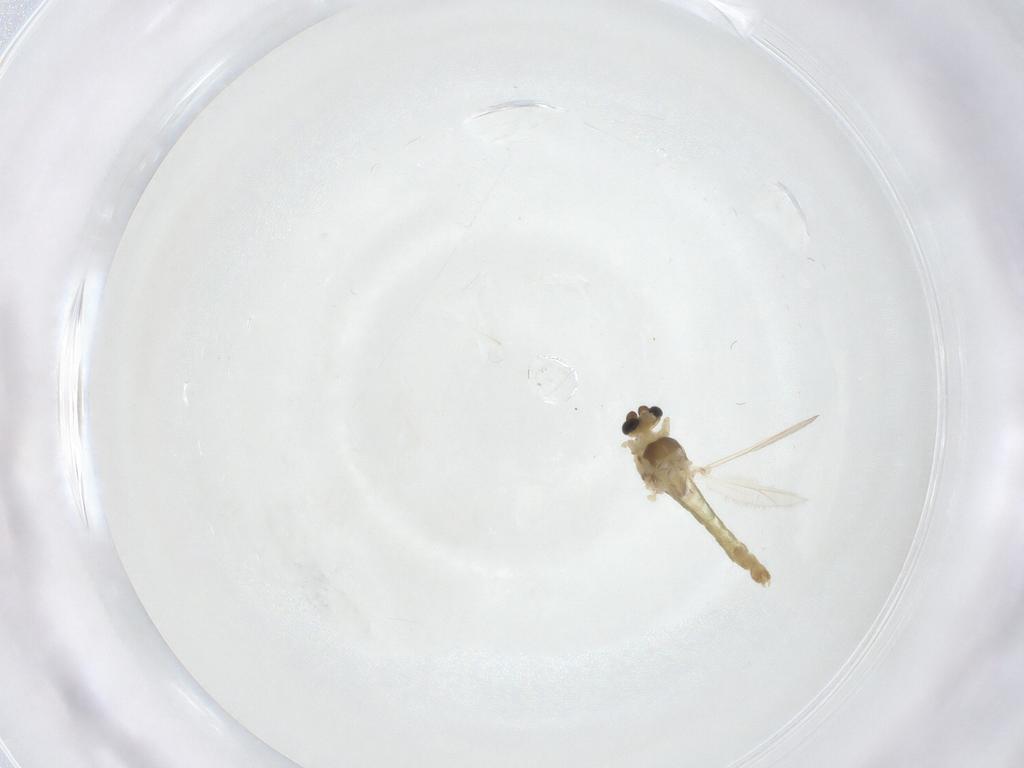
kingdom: Animalia
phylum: Arthropoda
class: Insecta
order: Diptera
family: Chironomidae
